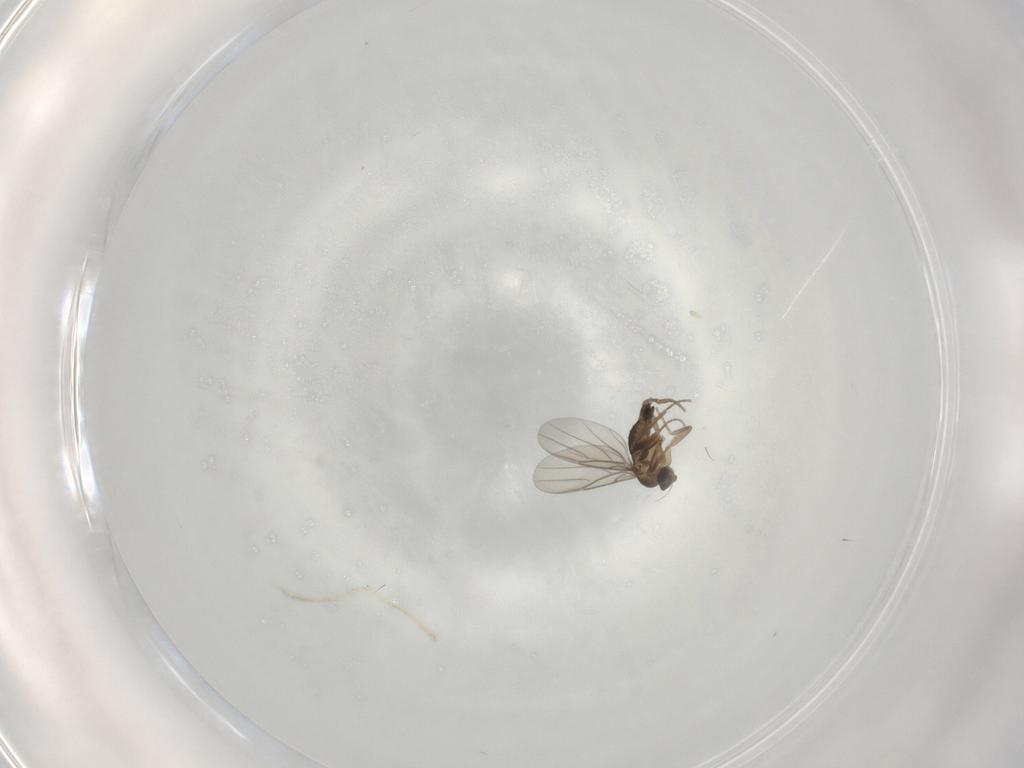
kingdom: Animalia
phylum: Arthropoda
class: Insecta
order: Diptera
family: Phoridae
